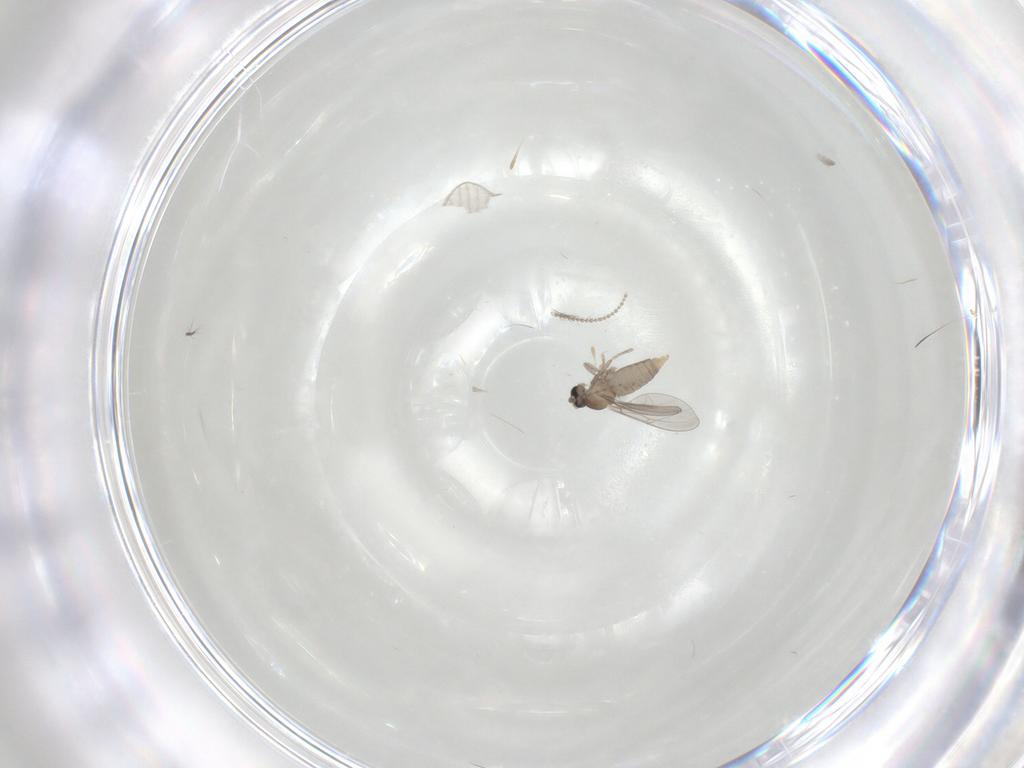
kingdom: Animalia
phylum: Arthropoda
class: Insecta
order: Diptera
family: Cecidomyiidae
